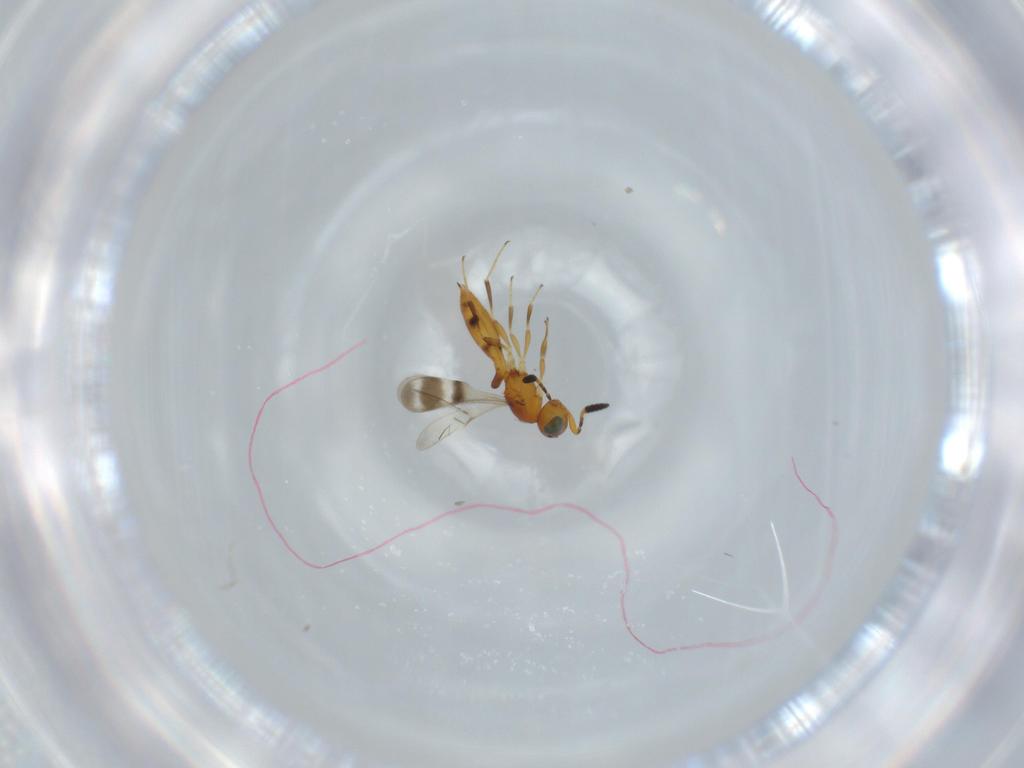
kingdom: Animalia
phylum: Arthropoda
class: Insecta
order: Hymenoptera
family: Scelionidae
